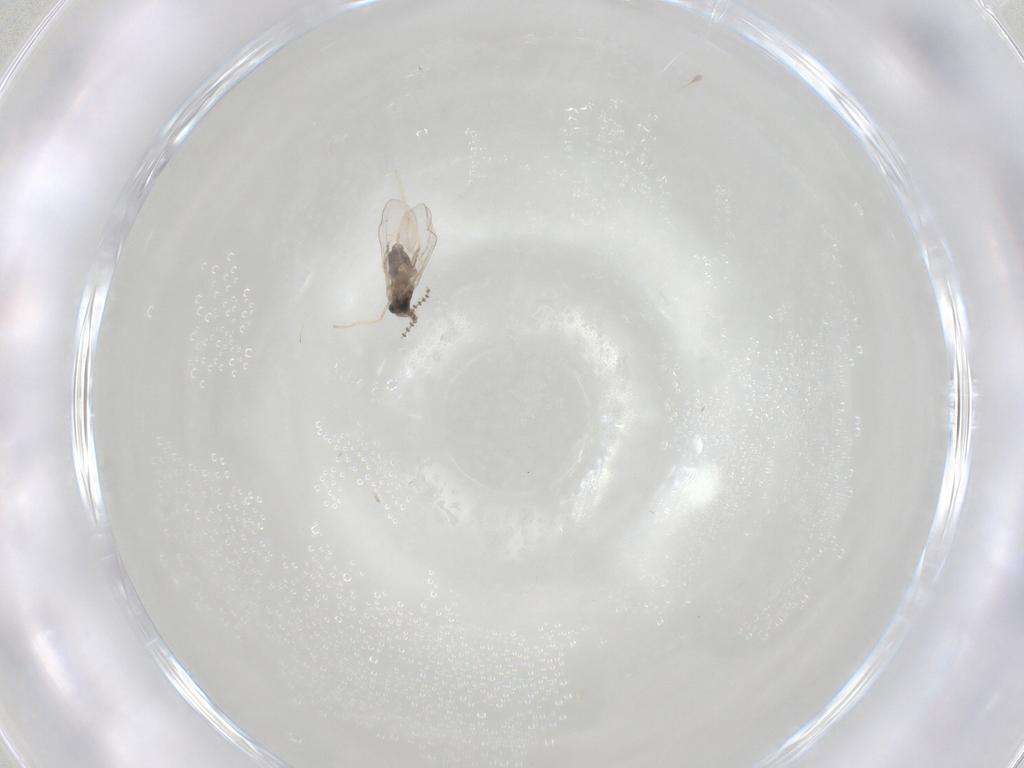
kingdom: Animalia
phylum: Arthropoda
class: Insecta
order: Diptera
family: Cecidomyiidae
